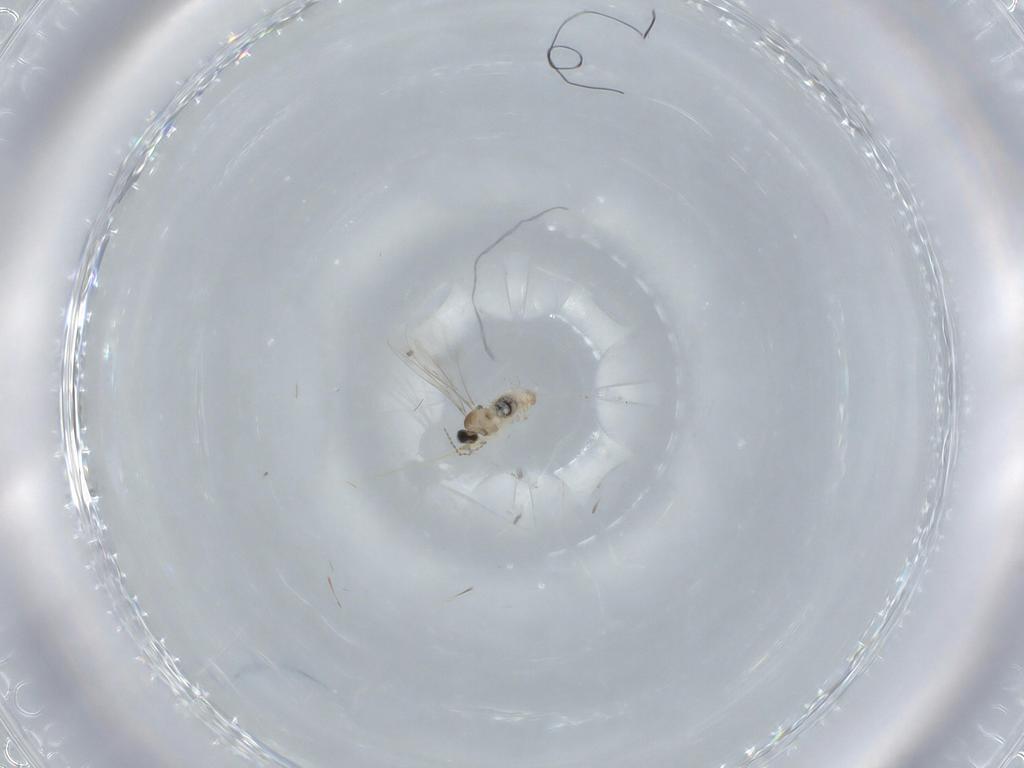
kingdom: Animalia
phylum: Arthropoda
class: Insecta
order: Diptera
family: Cecidomyiidae
